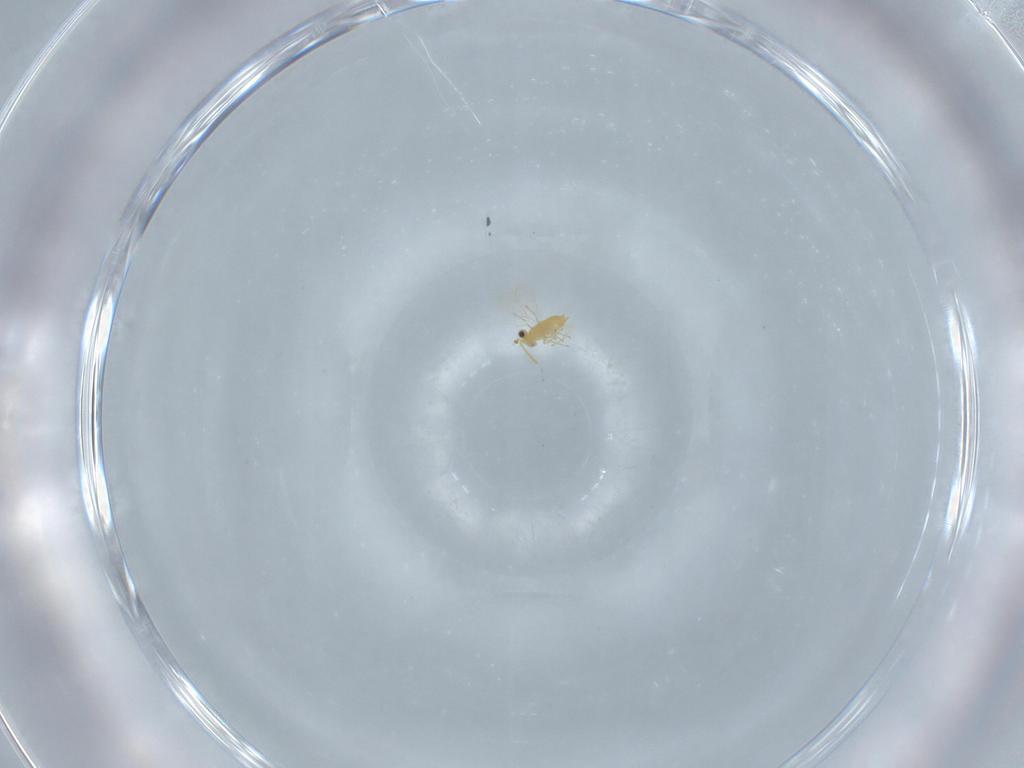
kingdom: Animalia
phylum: Arthropoda
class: Insecta
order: Hymenoptera
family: Aphelinidae
